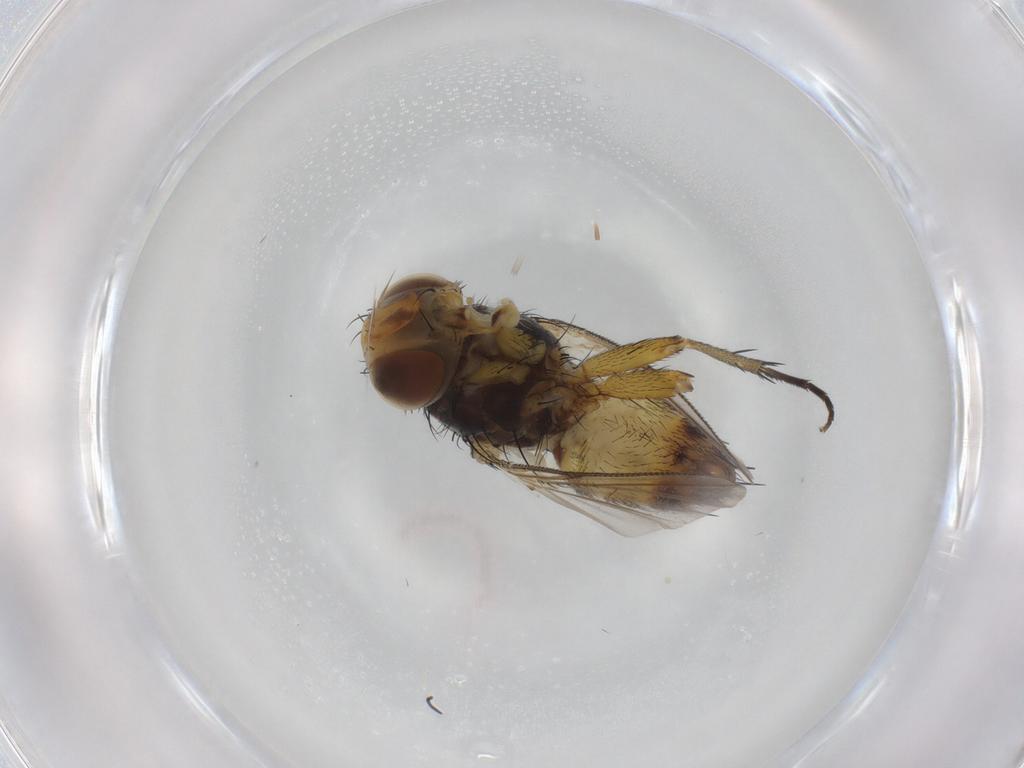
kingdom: Animalia
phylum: Arthropoda
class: Insecta
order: Diptera
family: Tachinidae
